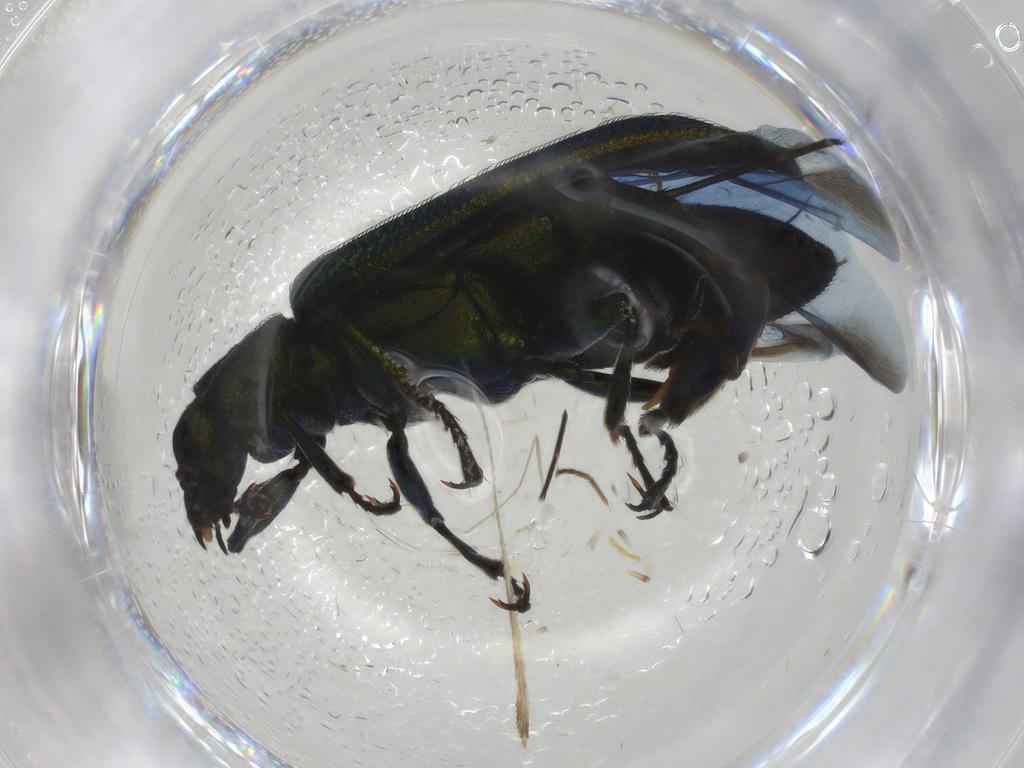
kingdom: Animalia
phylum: Arthropoda
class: Insecta
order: Coleoptera
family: Melyridae
